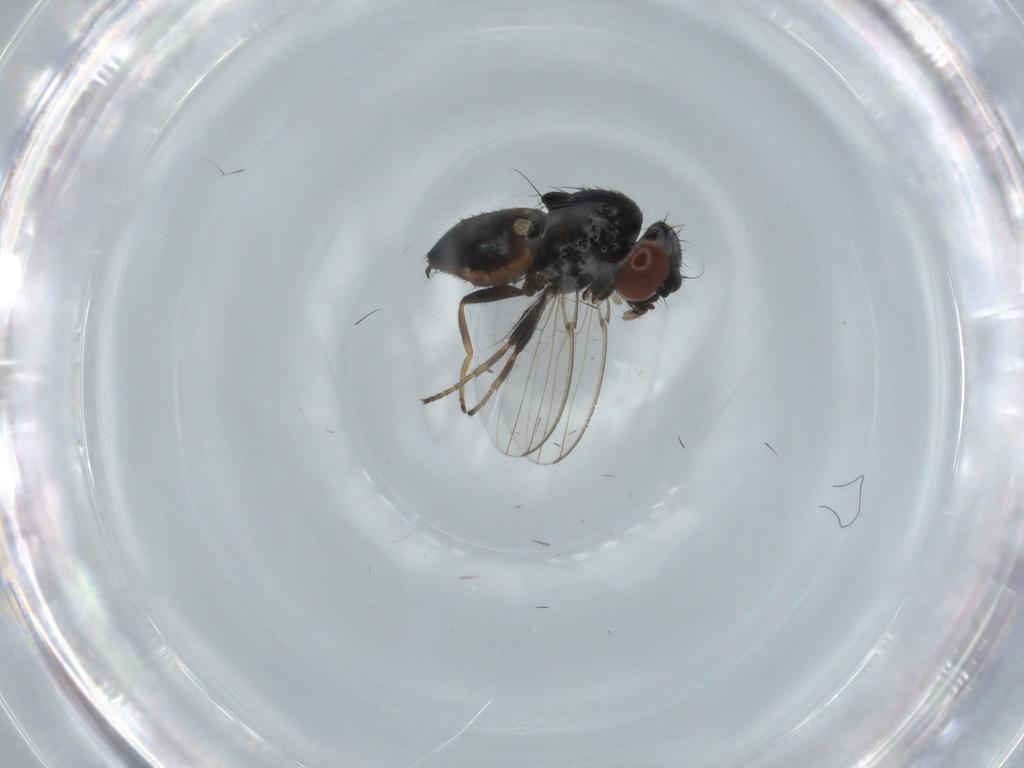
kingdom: Animalia
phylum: Arthropoda
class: Insecta
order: Diptera
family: Milichiidae
